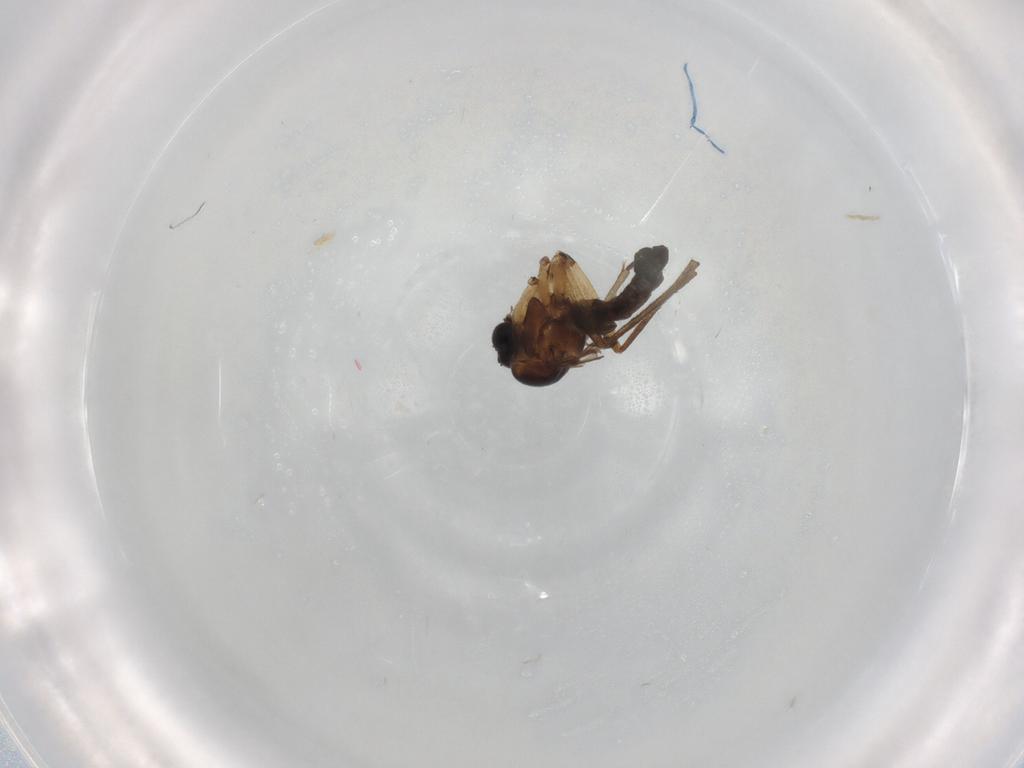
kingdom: Animalia
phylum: Arthropoda
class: Insecta
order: Diptera
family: Sciaridae
